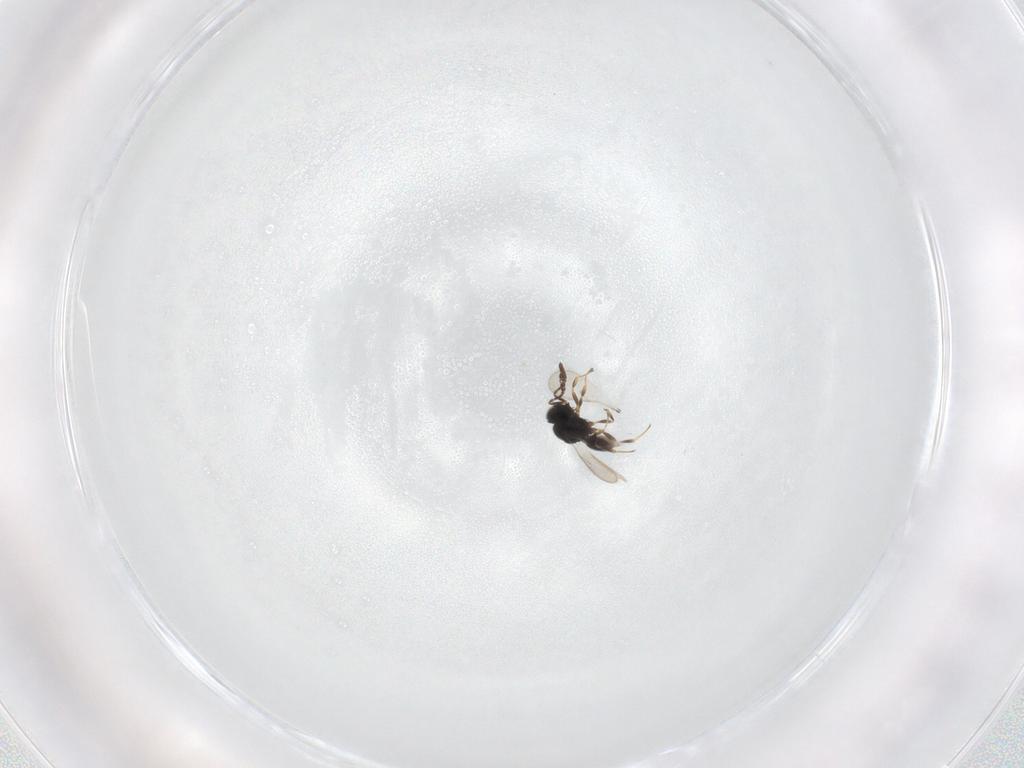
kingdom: Animalia
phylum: Arthropoda
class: Insecta
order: Hymenoptera
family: Scelionidae
